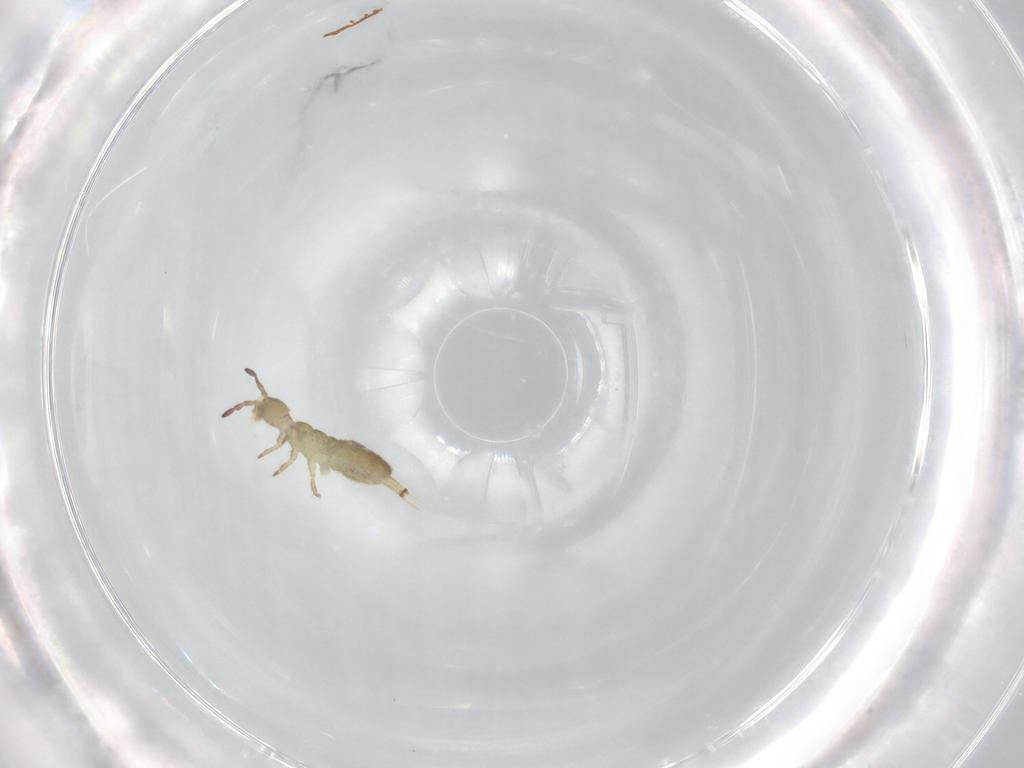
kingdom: Animalia
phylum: Arthropoda
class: Collembola
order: Entomobryomorpha
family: Isotomidae
